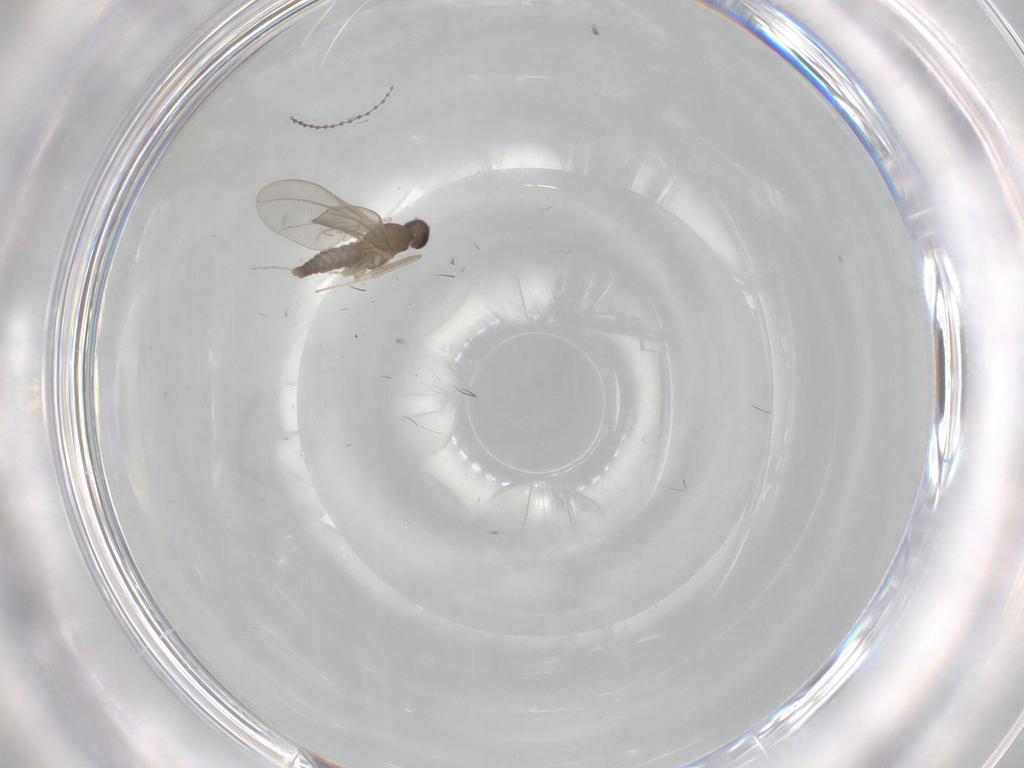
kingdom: Animalia
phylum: Arthropoda
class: Insecta
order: Diptera
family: Cecidomyiidae
